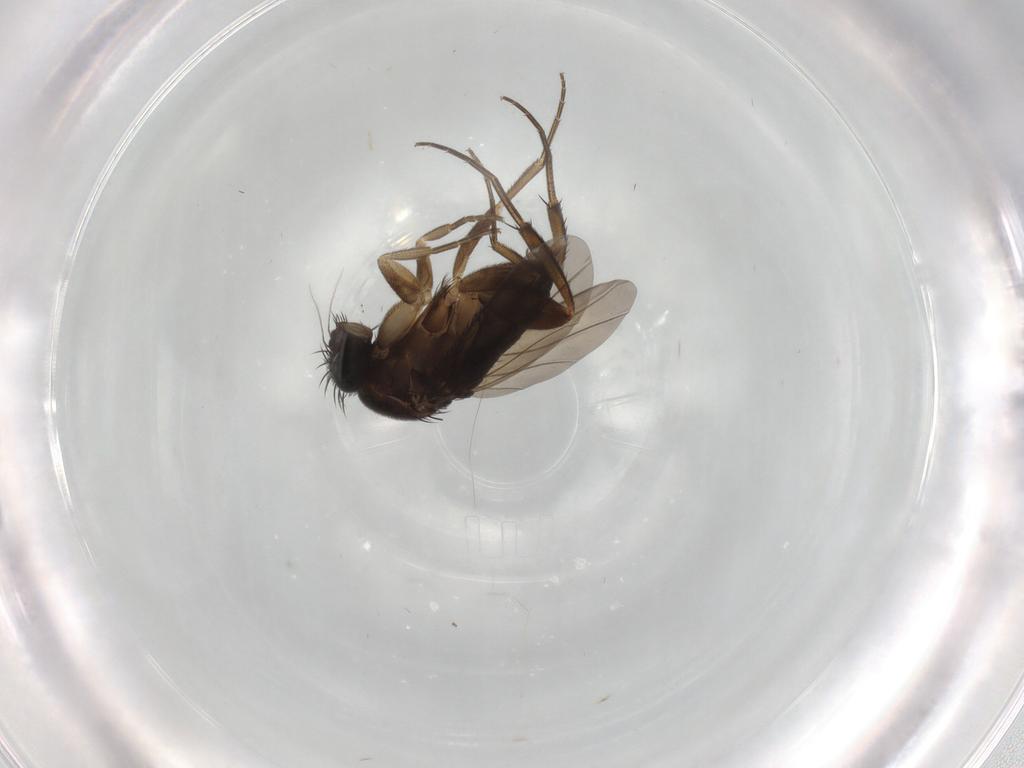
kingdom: Animalia
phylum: Arthropoda
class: Insecta
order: Diptera
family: Phoridae
